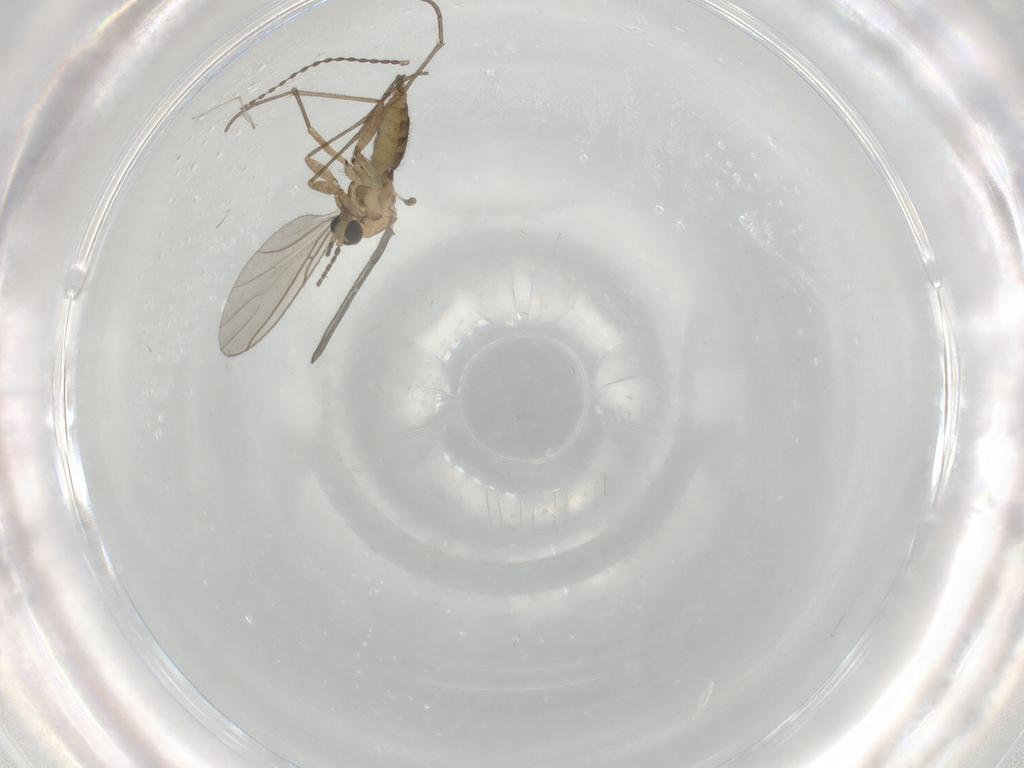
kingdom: Animalia
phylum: Arthropoda
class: Insecta
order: Diptera
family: Sciaridae
